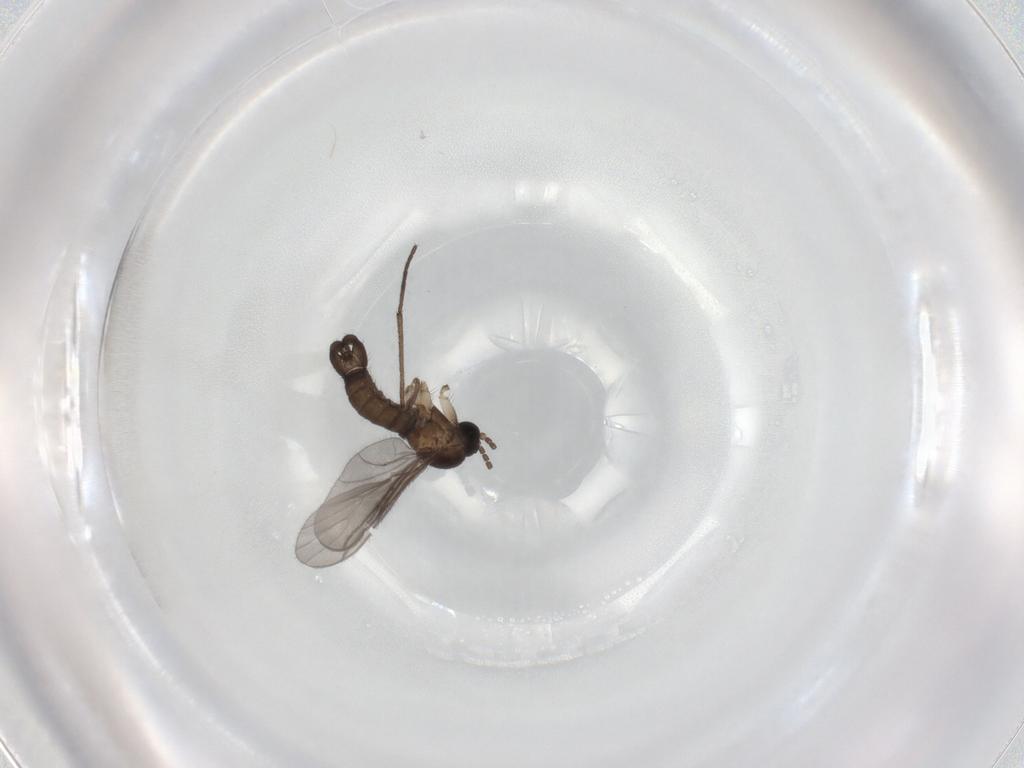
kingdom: Animalia
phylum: Arthropoda
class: Insecta
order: Diptera
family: Sciaridae
